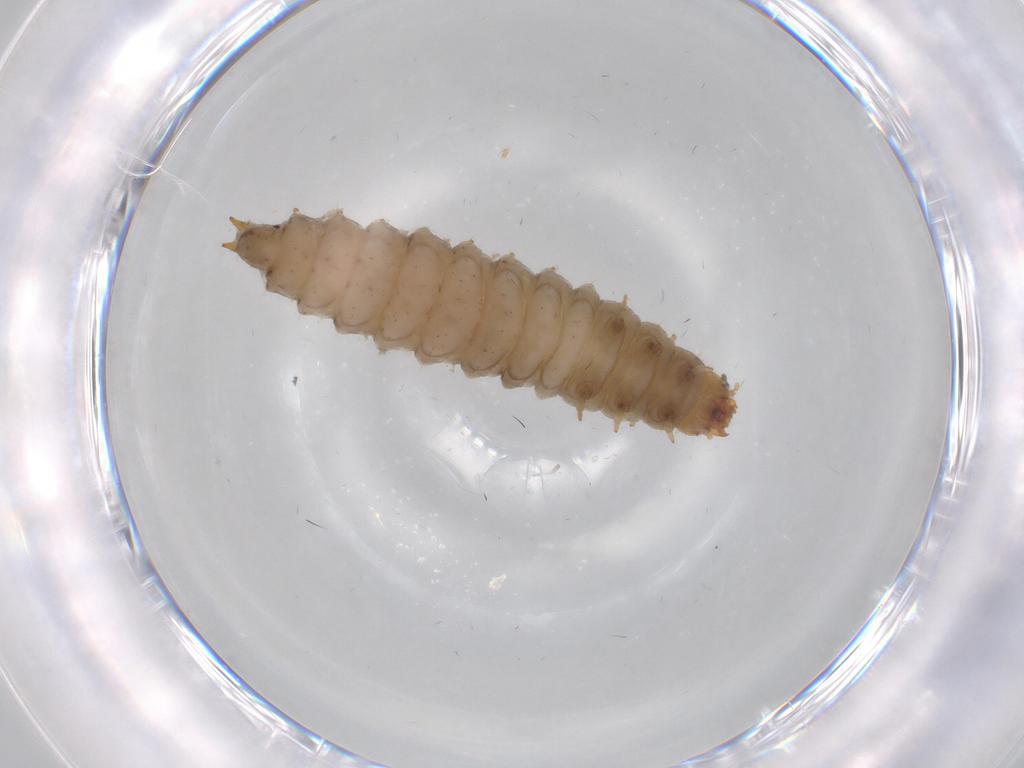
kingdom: Animalia
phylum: Arthropoda
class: Insecta
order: Coleoptera
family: Nitidulidae
